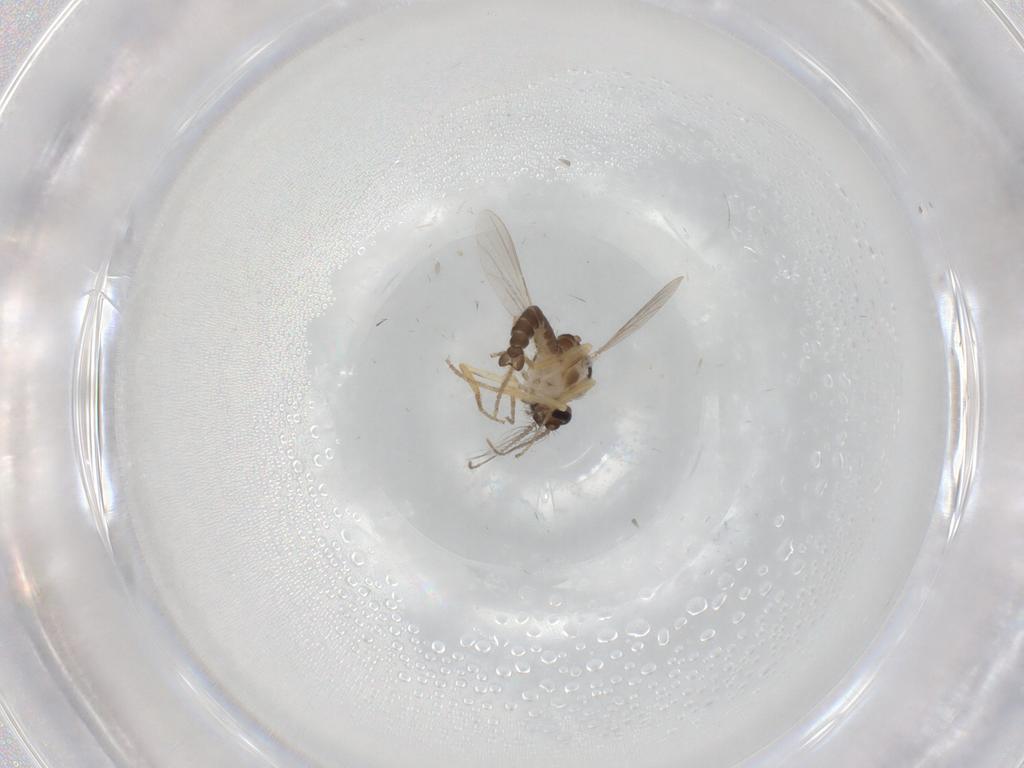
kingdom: Animalia
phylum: Arthropoda
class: Insecta
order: Diptera
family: Ceratopogonidae
